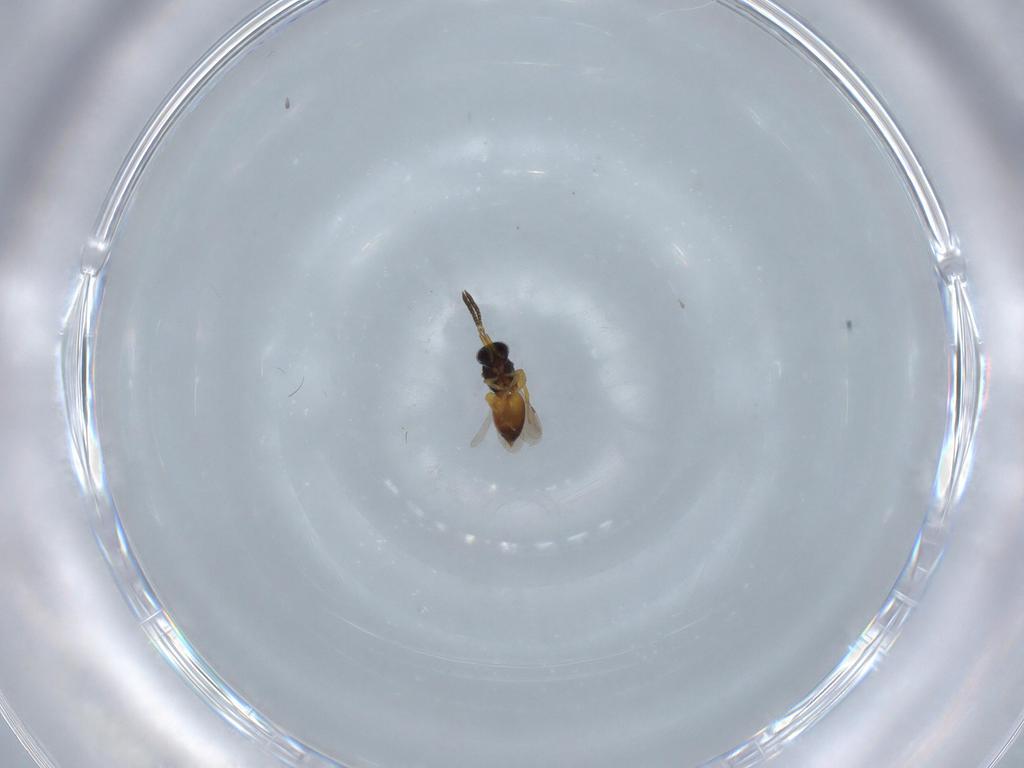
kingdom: Animalia
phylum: Arthropoda
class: Insecta
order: Hymenoptera
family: Ceraphronidae
